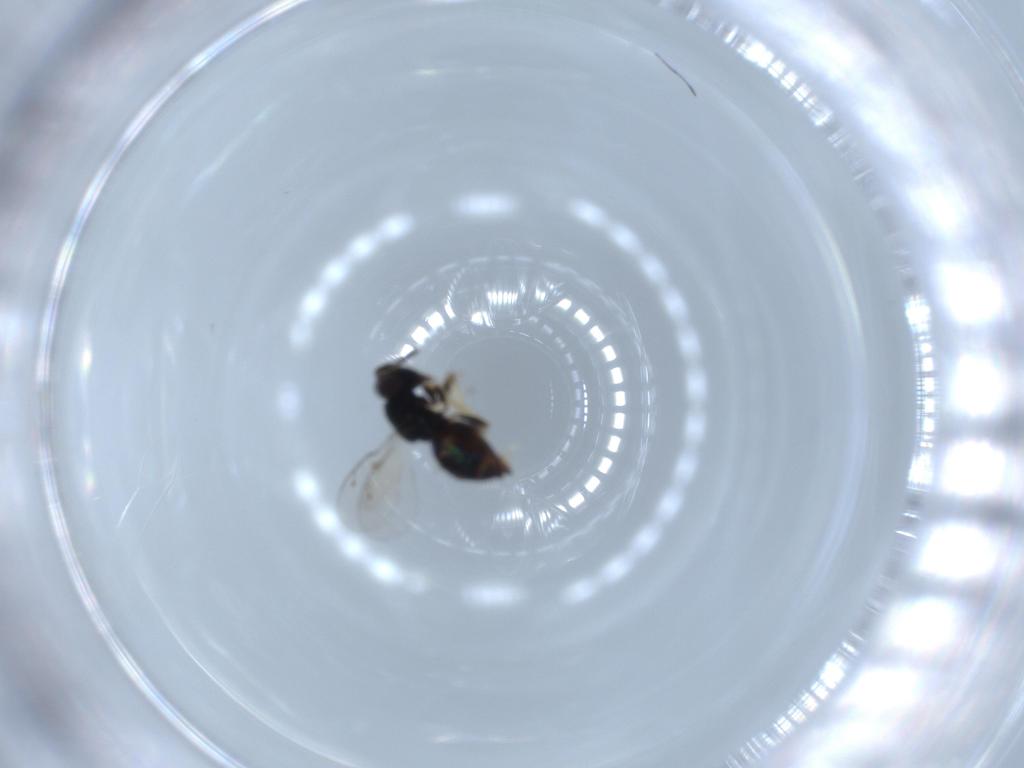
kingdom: Animalia
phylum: Arthropoda
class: Insecta
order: Hymenoptera
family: Pteromalidae
